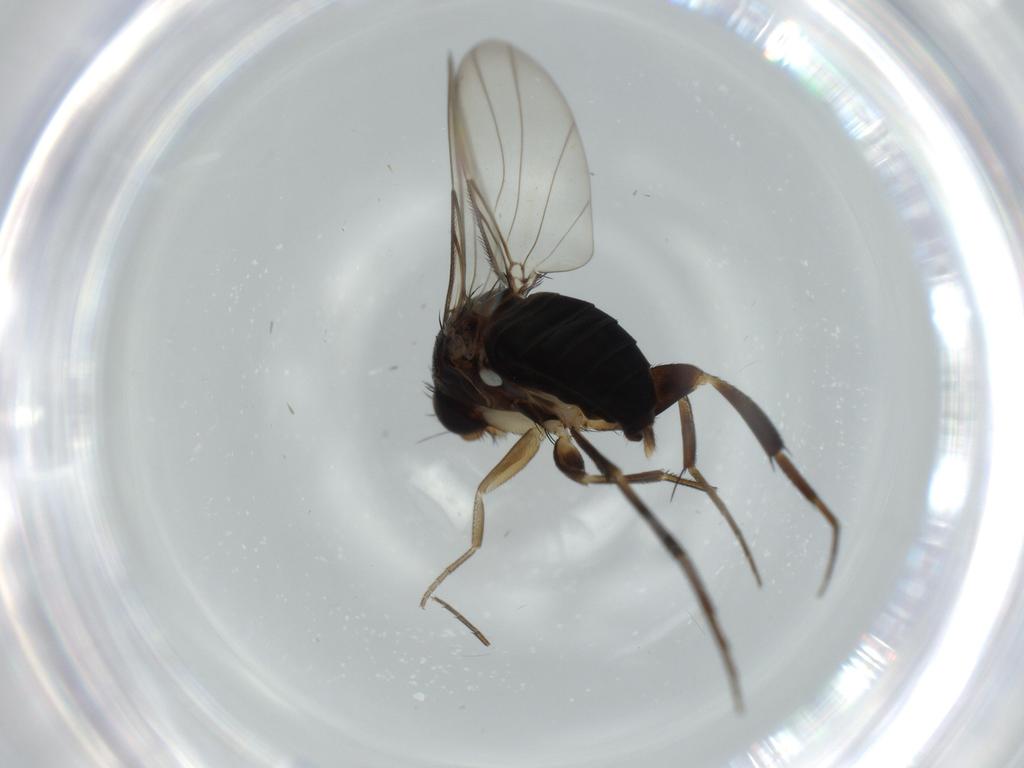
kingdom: Animalia
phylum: Arthropoda
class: Insecta
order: Diptera
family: Phoridae
